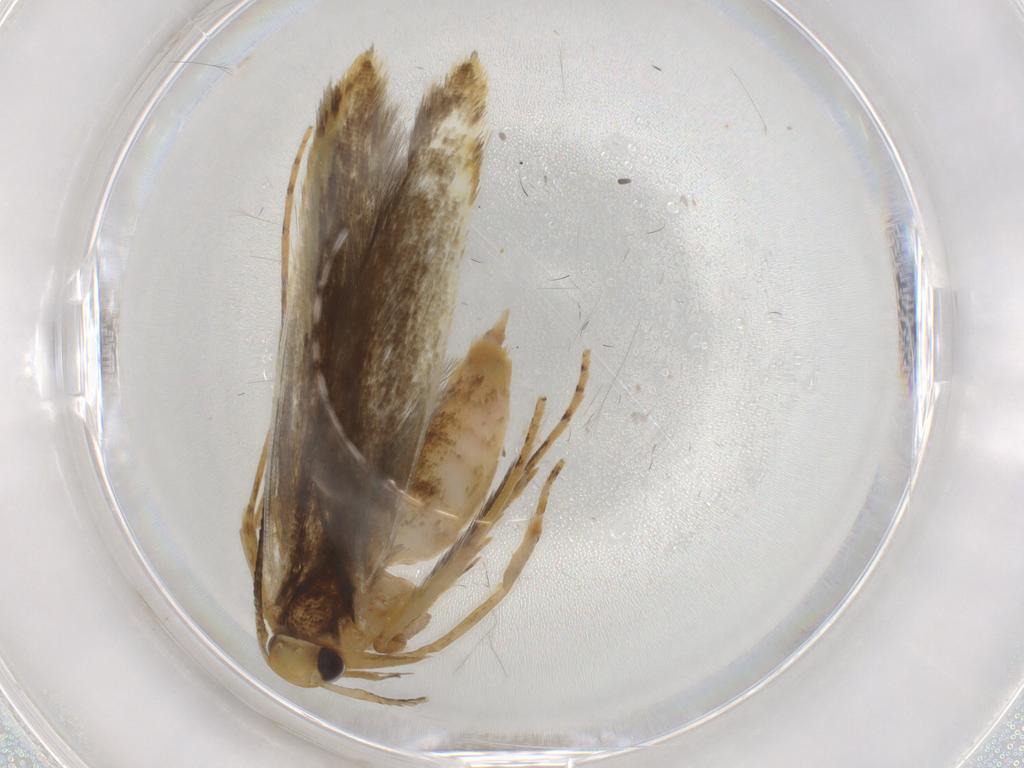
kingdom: Animalia
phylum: Arthropoda
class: Insecta
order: Lepidoptera
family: Pterolonchidae
